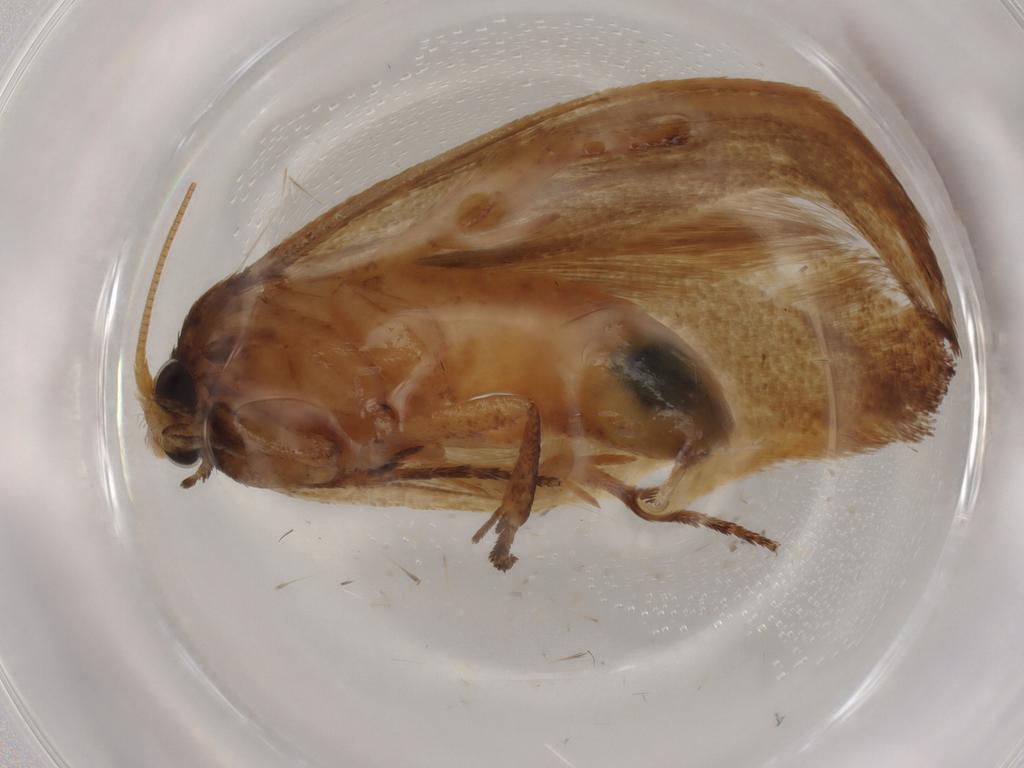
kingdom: Animalia
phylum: Arthropoda
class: Insecta
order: Lepidoptera
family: Tineidae
